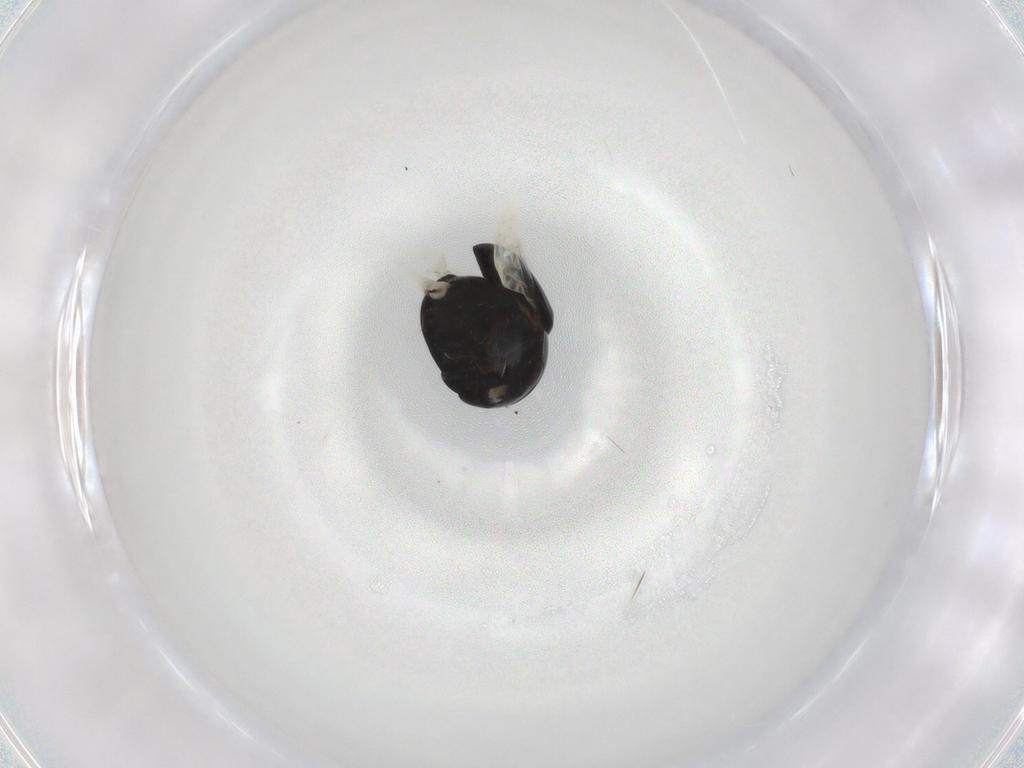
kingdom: Animalia
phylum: Arthropoda
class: Insecta
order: Coleoptera
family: Cybocephalidae
